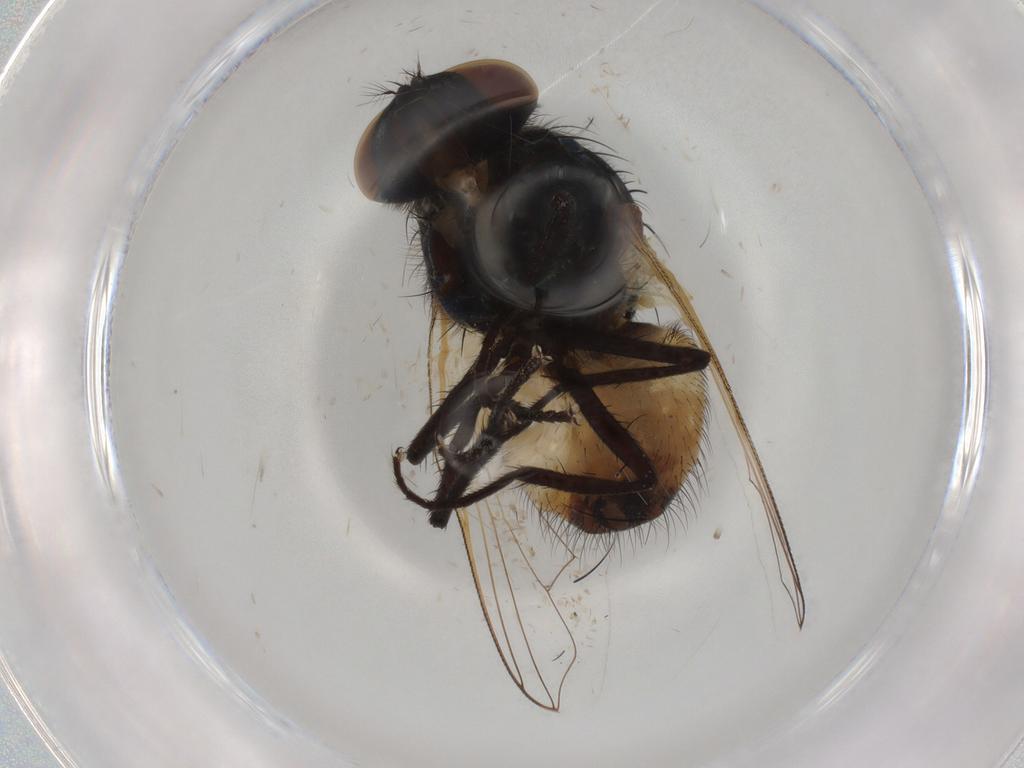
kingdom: Animalia
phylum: Arthropoda
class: Insecta
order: Diptera
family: Muscidae
